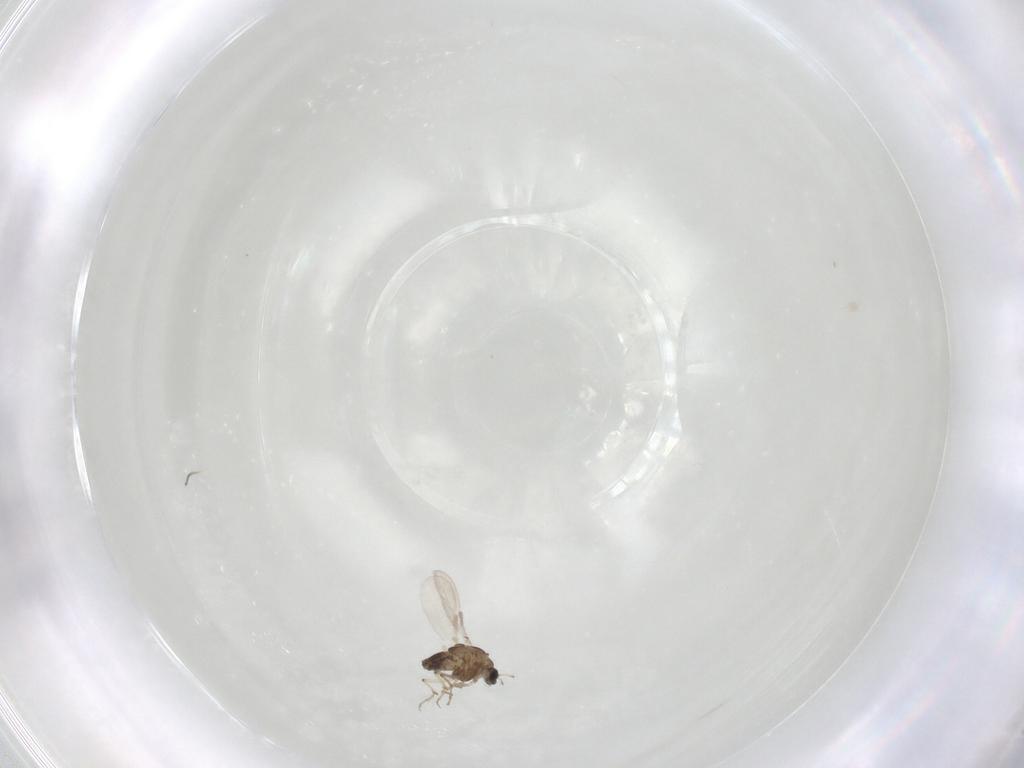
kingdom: Animalia
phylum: Arthropoda
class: Insecta
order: Diptera
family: Chironomidae
